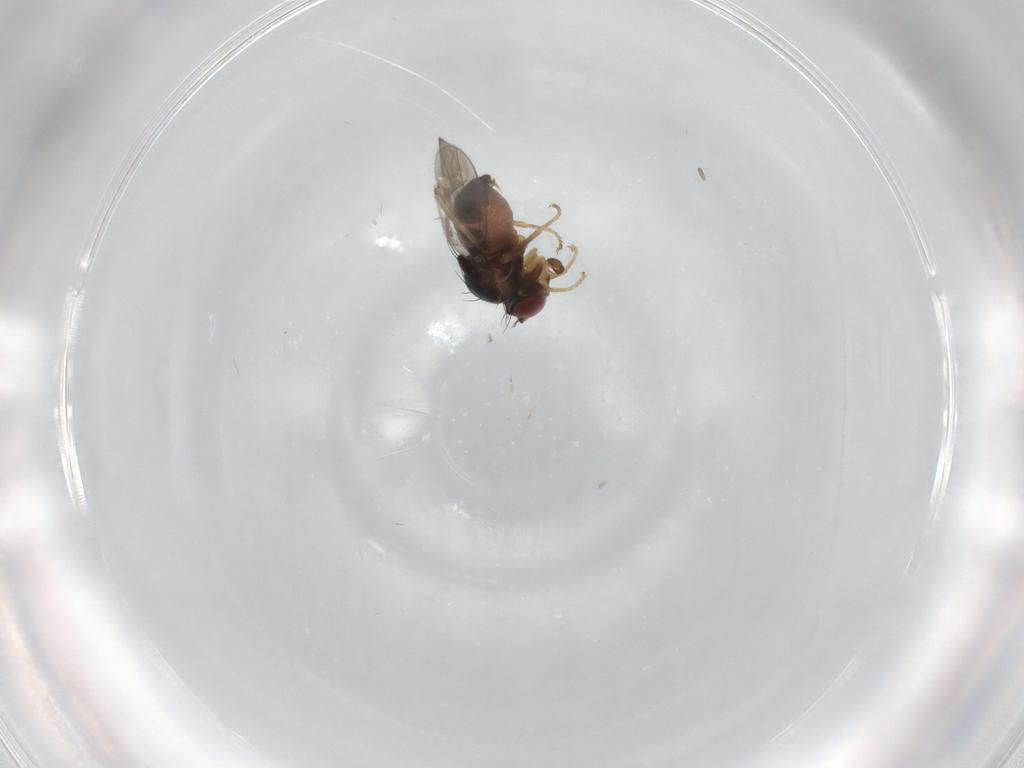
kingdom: Animalia
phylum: Arthropoda
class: Insecta
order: Diptera
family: Ephydridae
